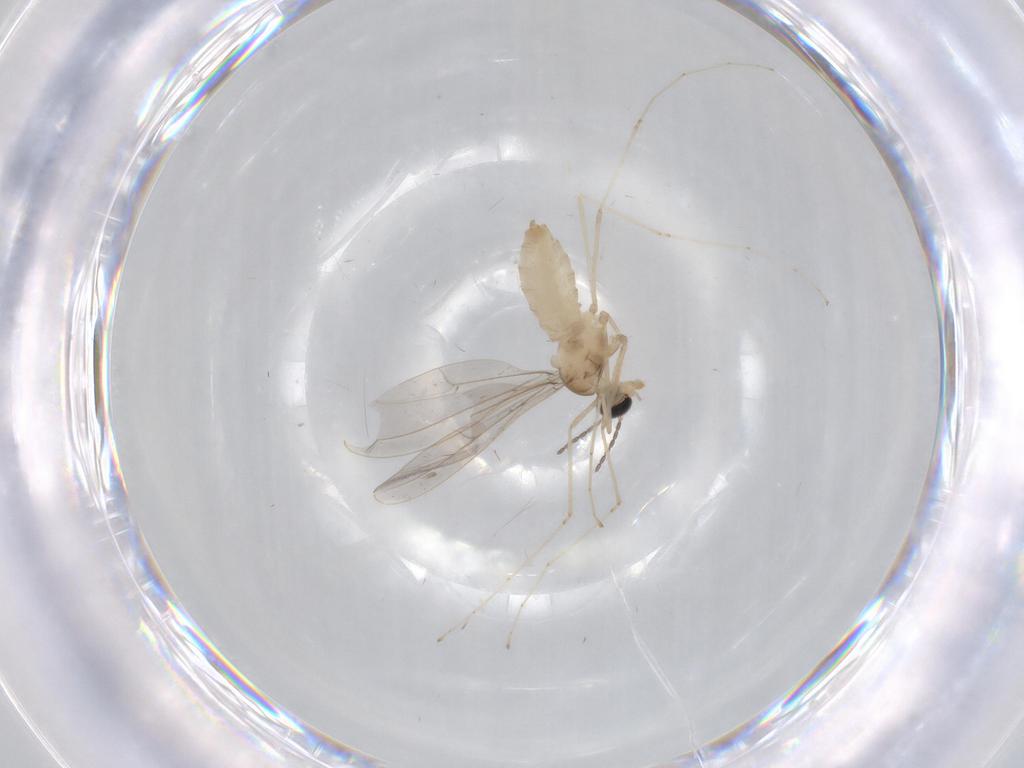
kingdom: Animalia
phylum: Arthropoda
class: Insecta
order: Diptera
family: Cecidomyiidae
